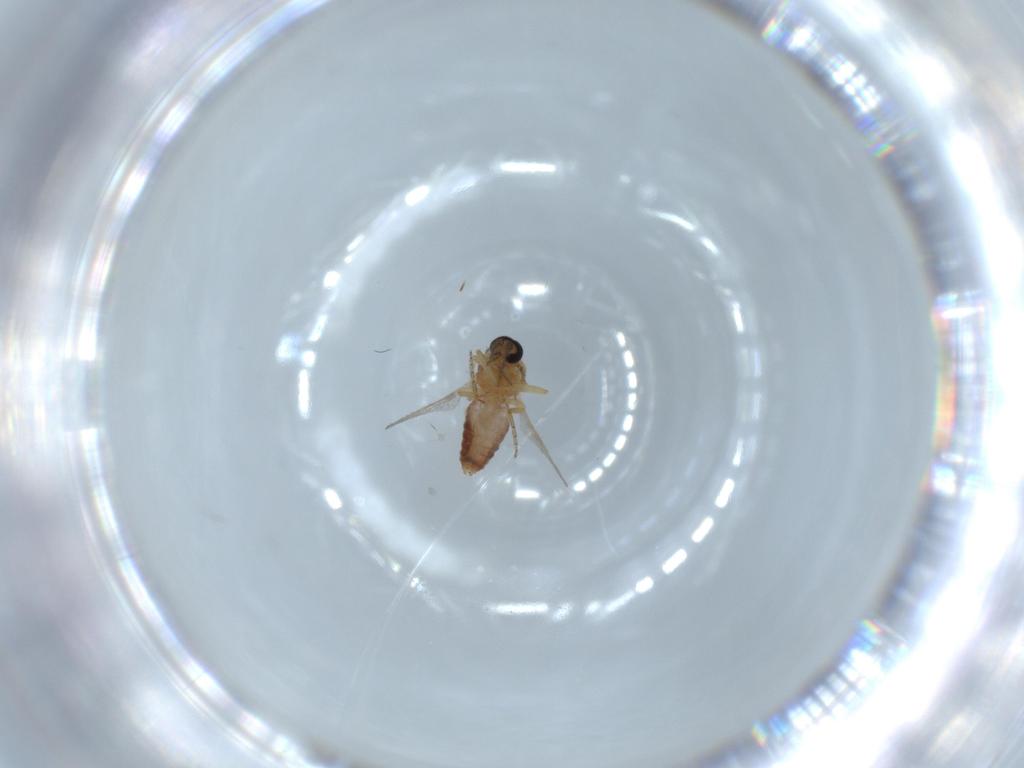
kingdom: Animalia
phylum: Arthropoda
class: Insecta
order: Diptera
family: Ceratopogonidae
